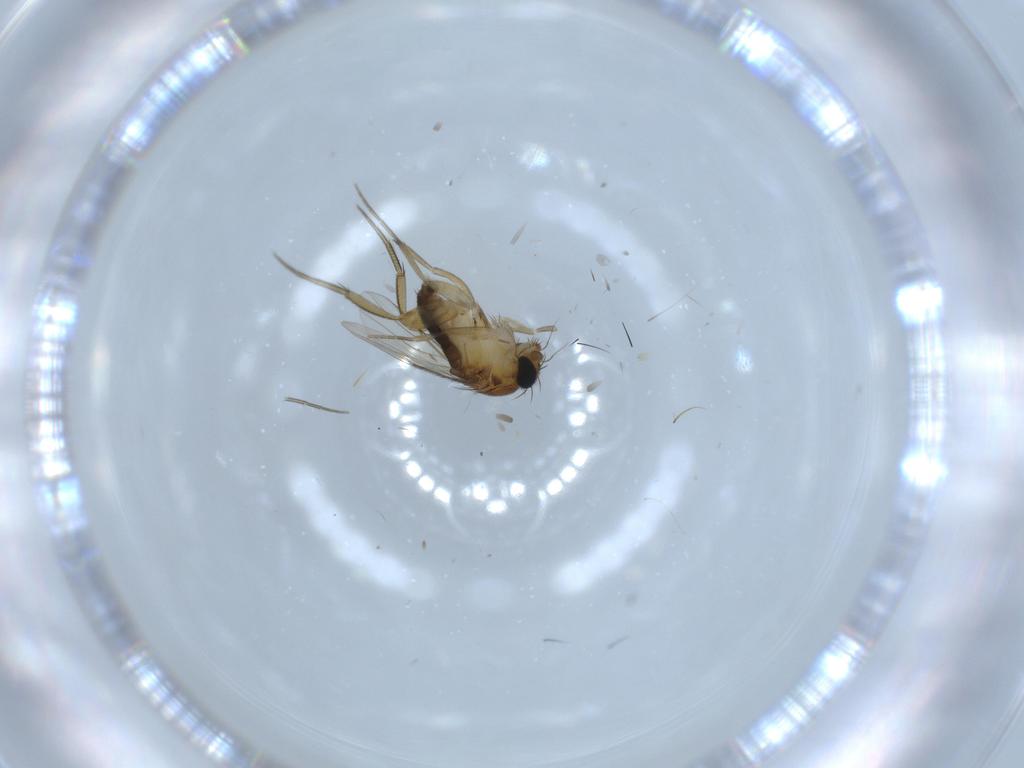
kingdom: Animalia
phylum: Arthropoda
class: Insecta
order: Diptera
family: Phoridae
